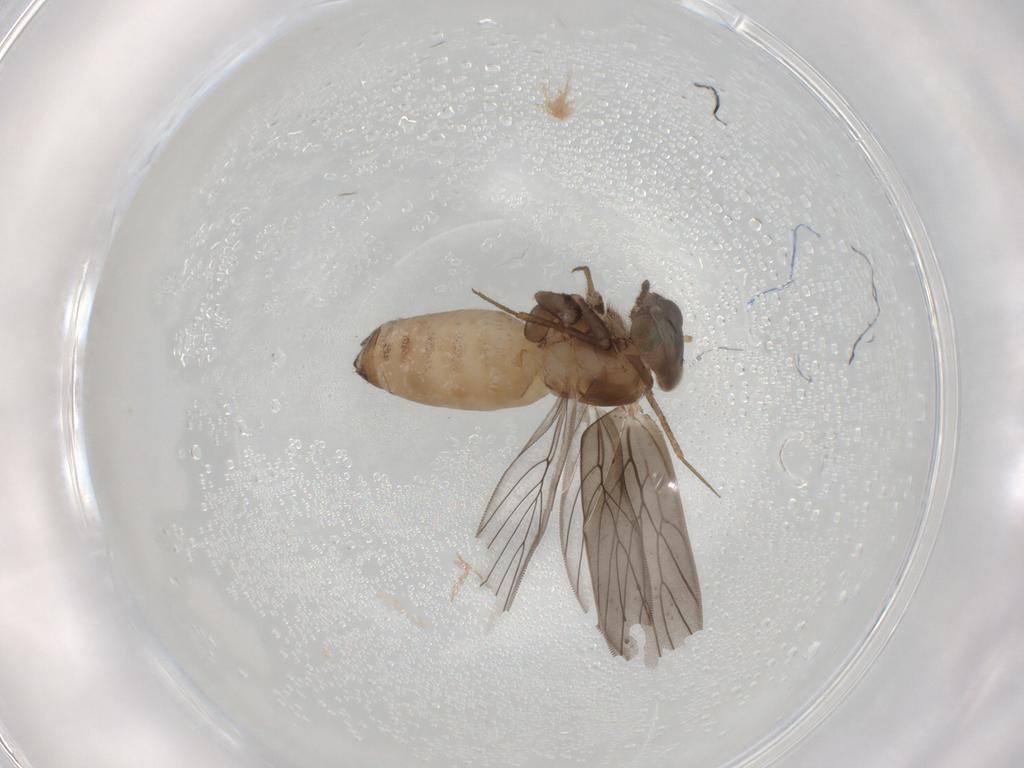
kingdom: Animalia
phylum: Arthropoda
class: Insecta
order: Psocodea
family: Lepidopsocidae
